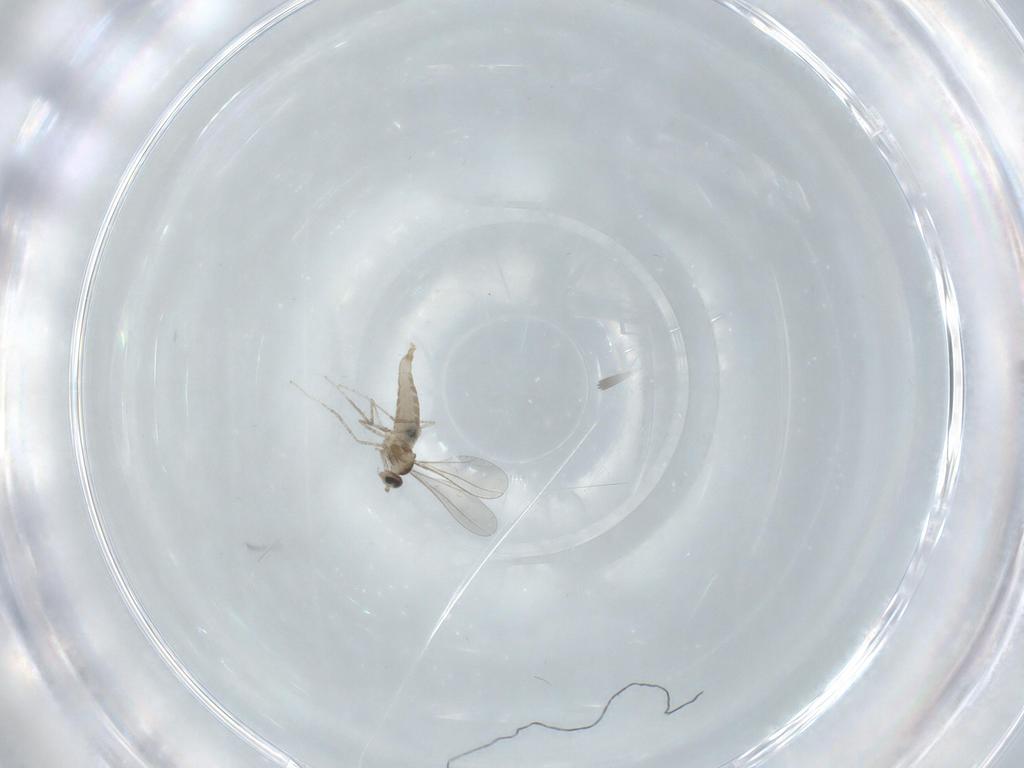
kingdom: Animalia
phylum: Arthropoda
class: Insecta
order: Diptera
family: Chironomidae
